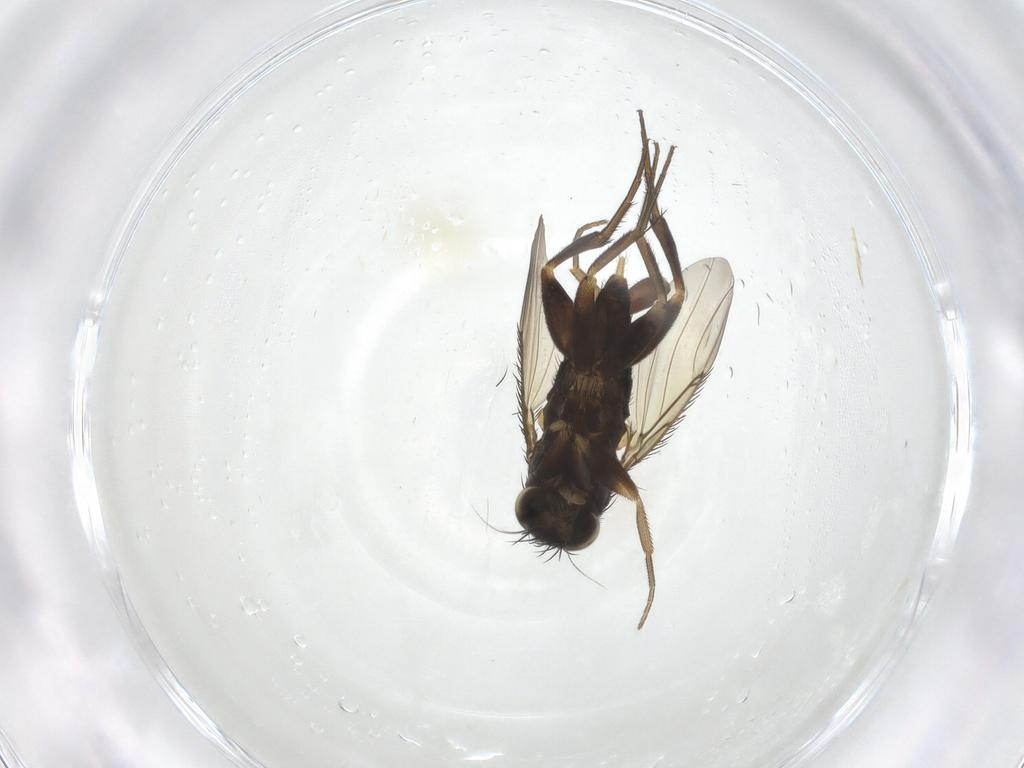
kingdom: Animalia
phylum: Arthropoda
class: Insecta
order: Diptera
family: Phoridae
